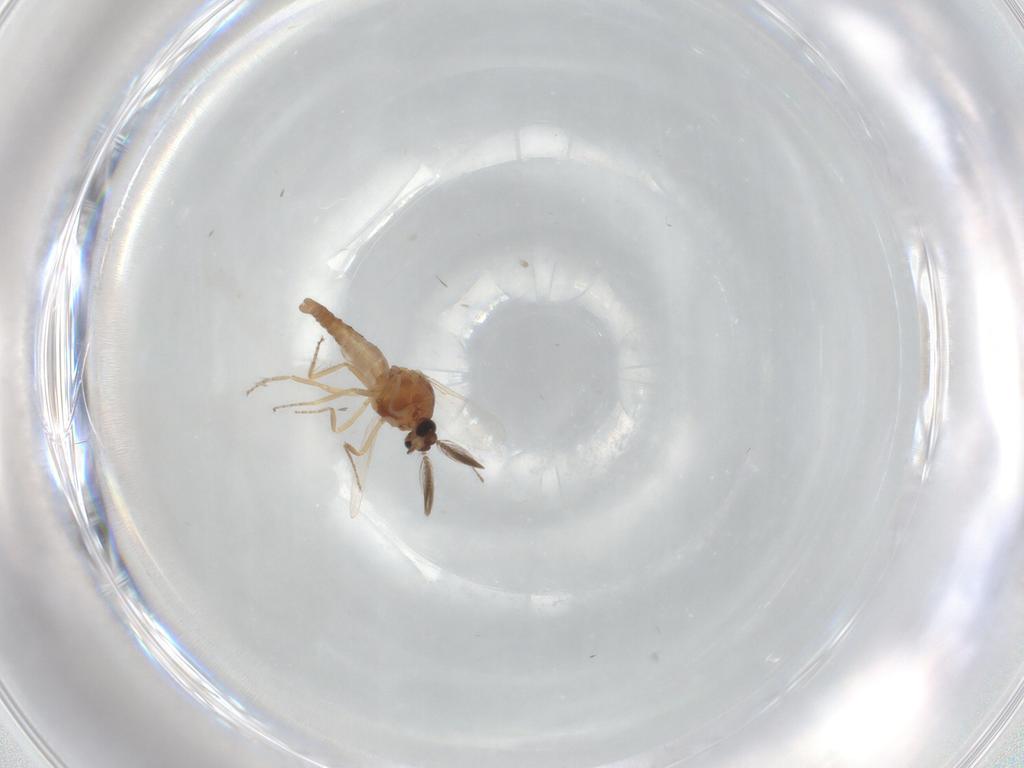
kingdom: Animalia
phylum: Arthropoda
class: Insecta
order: Diptera
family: Ceratopogonidae
